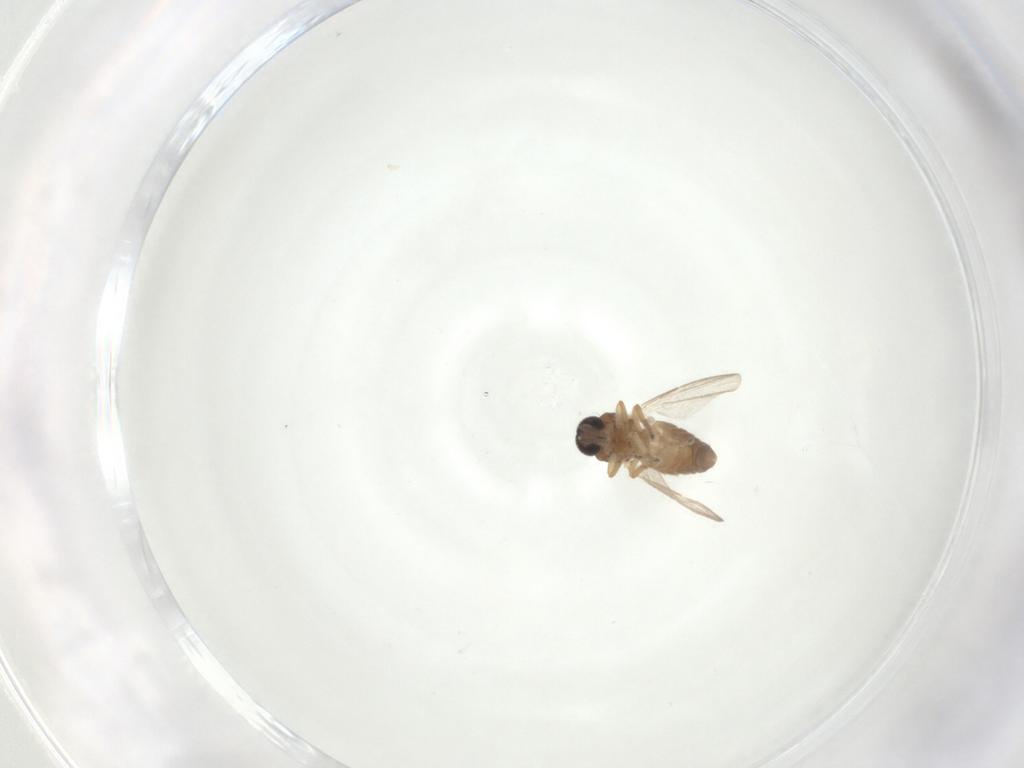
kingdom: Animalia
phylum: Arthropoda
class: Insecta
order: Diptera
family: Ceratopogonidae
